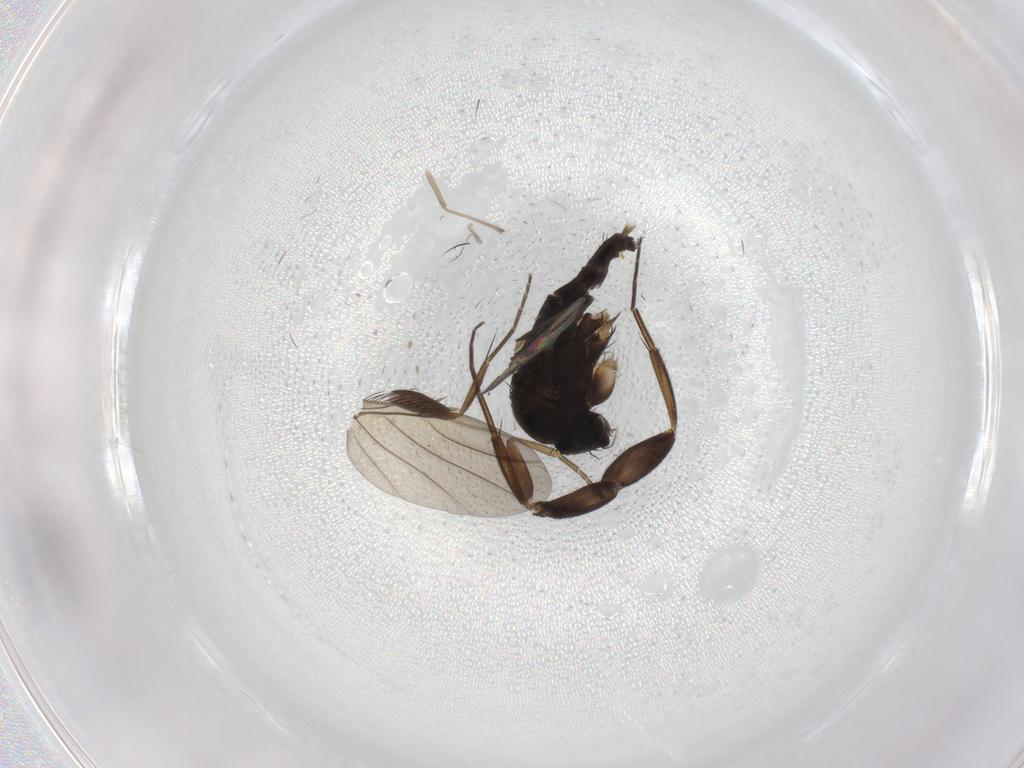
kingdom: Animalia
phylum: Arthropoda
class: Insecta
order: Diptera
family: Phoridae
